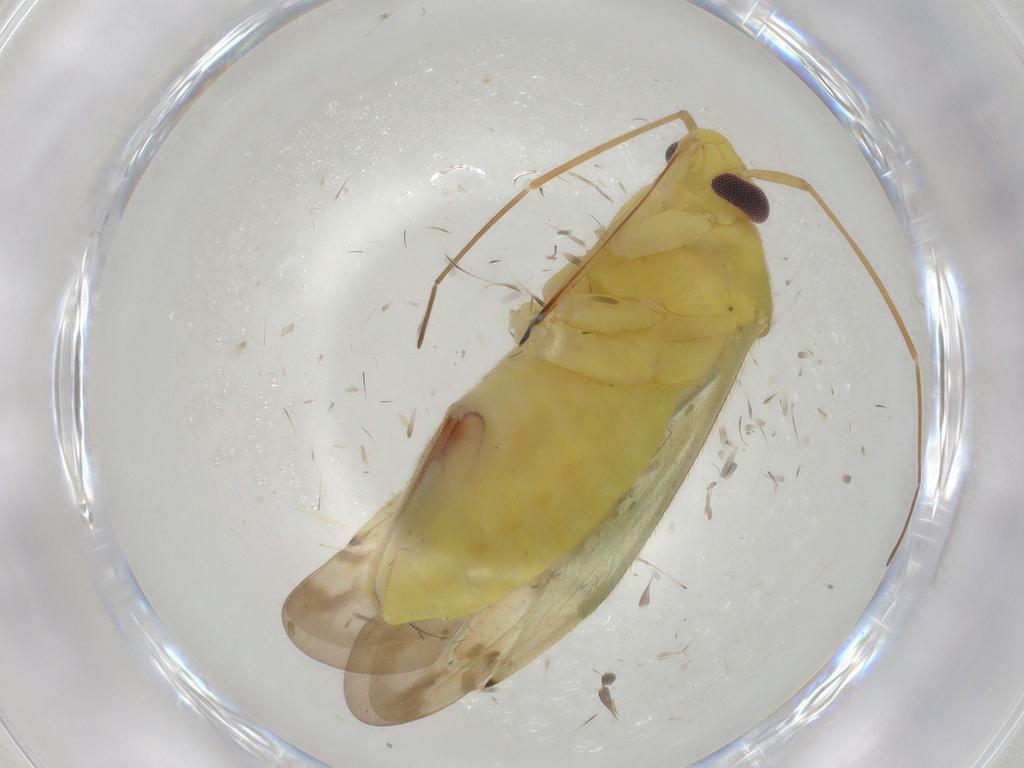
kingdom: Animalia
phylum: Arthropoda
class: Insecta
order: Hemiptera
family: Miridae
